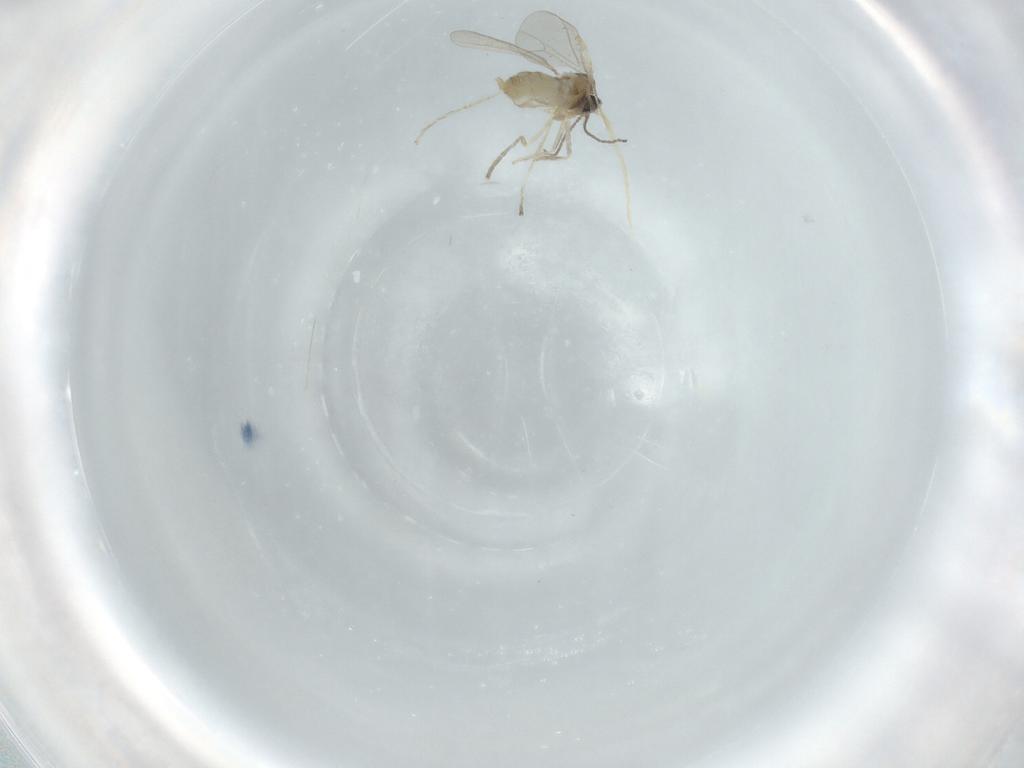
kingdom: Animalia
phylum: Arthropoda
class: Insecta
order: Diptera
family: Cecidomyiidae
